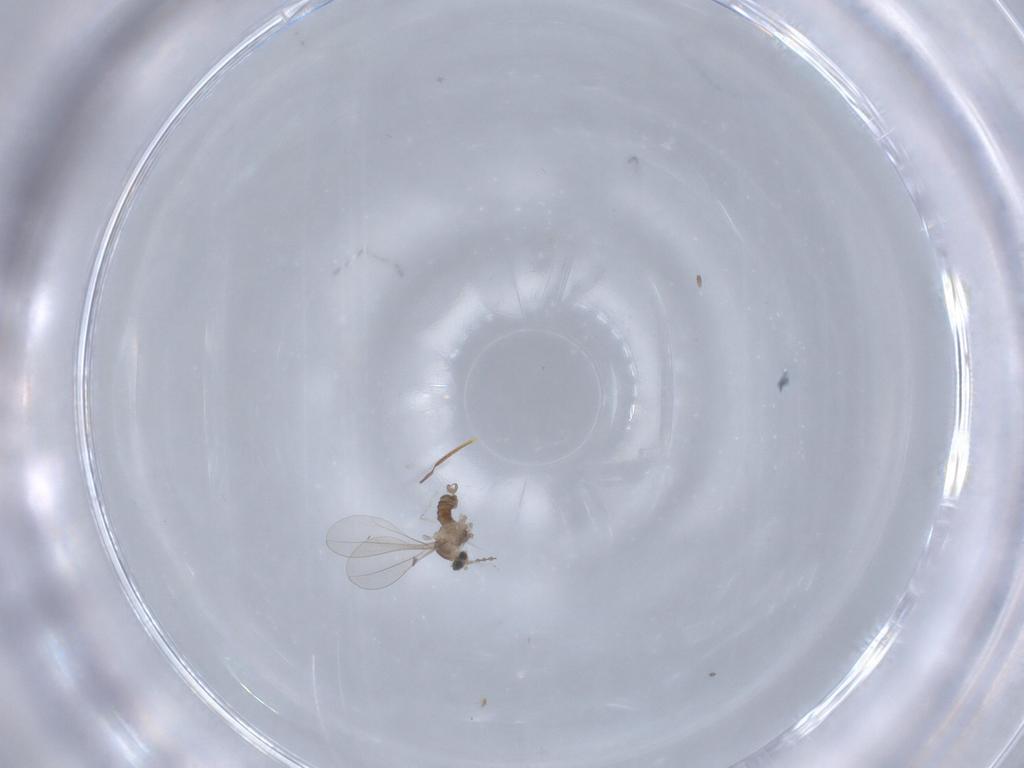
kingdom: Animalia
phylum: Arthropoda
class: Insecta
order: Diptera
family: Cecidomyiidae
